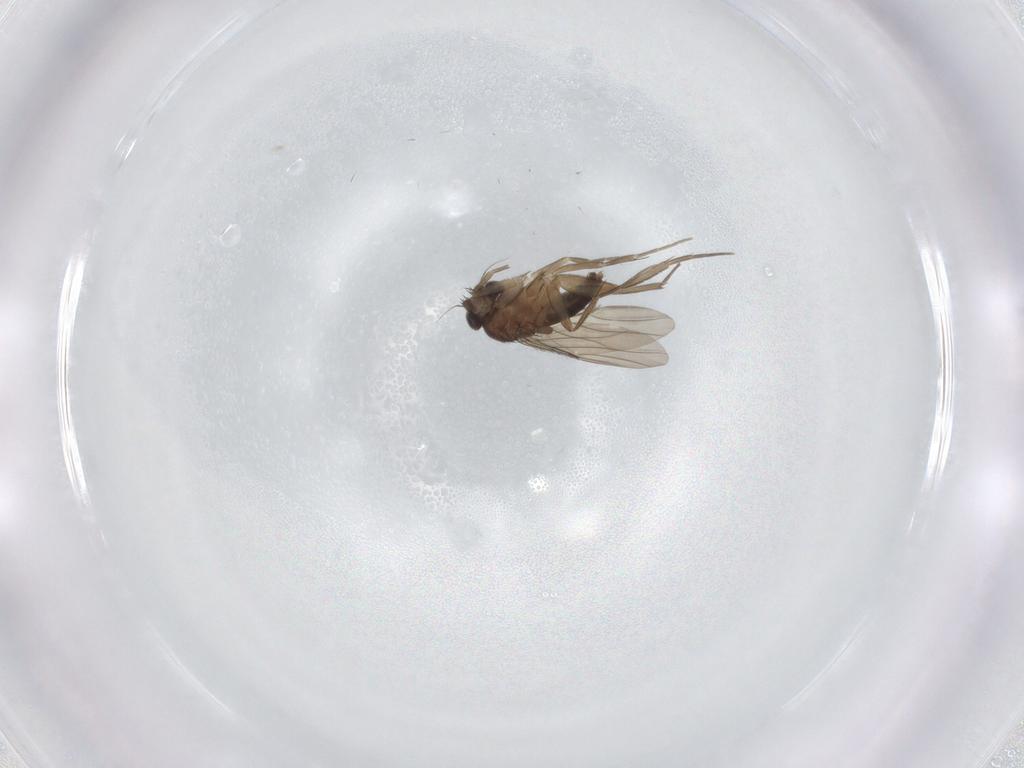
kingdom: Animalia
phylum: Arthropoda
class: Insecta
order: Diptera
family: Phoridae
